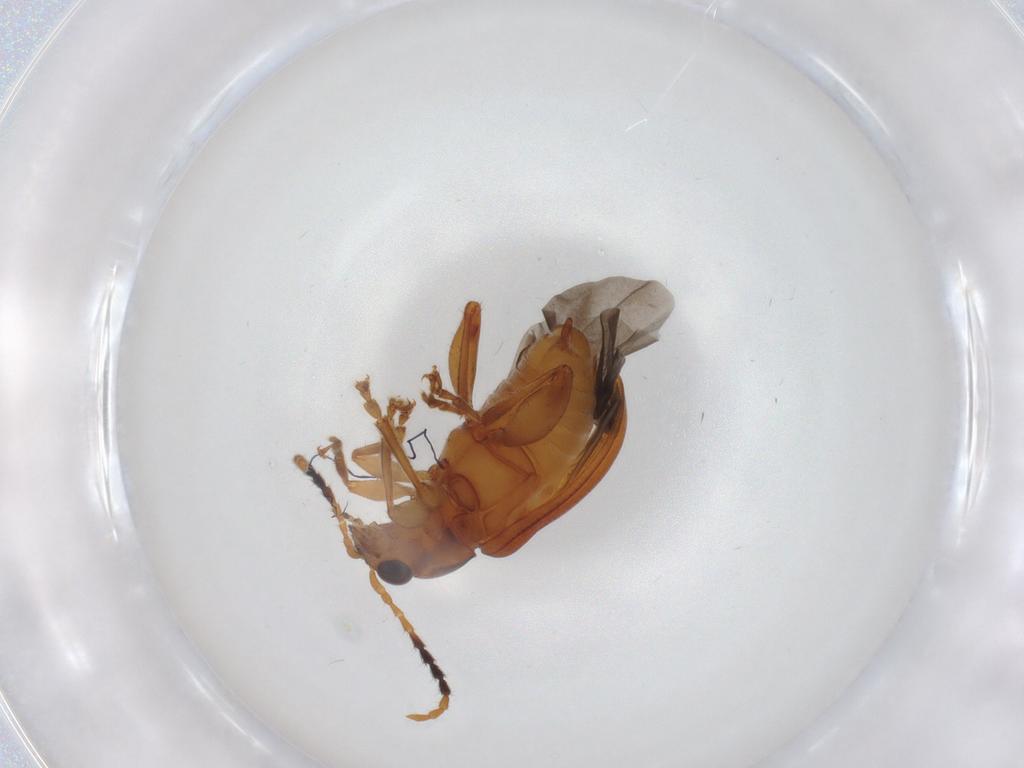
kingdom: Animalia
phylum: Arthropoda
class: Insecta
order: Coleoptera
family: Chrysomelidae
